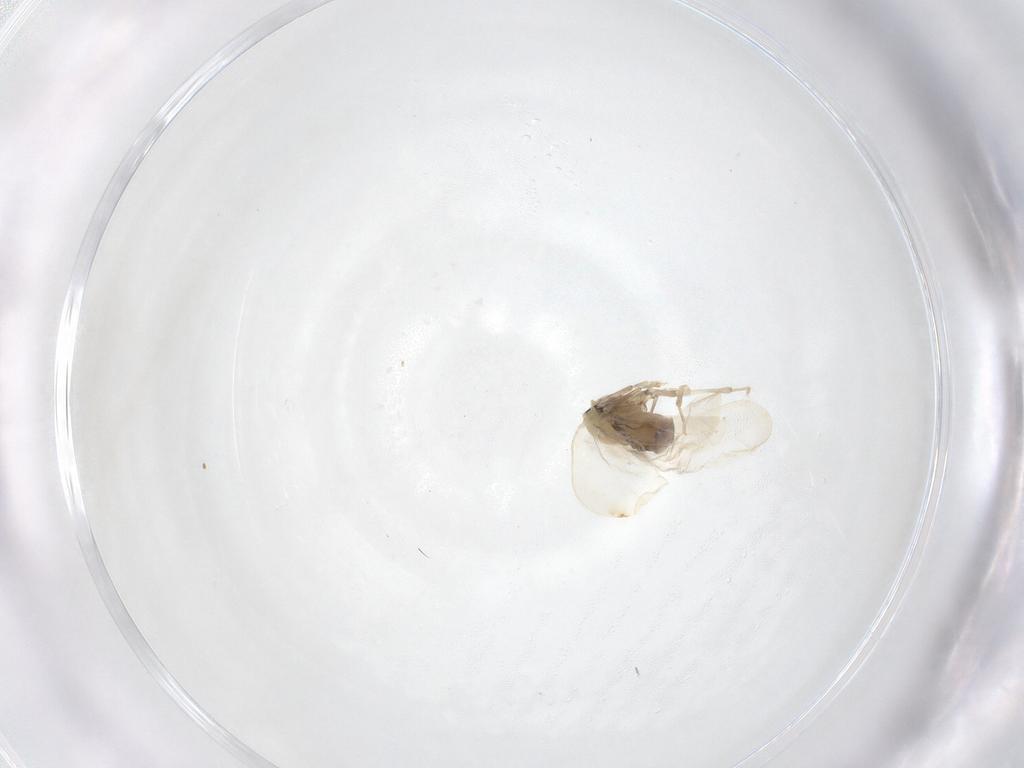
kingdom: Animalia
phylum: Arthropoda
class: Insecta
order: Hemiptera
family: Aleyrodidae
